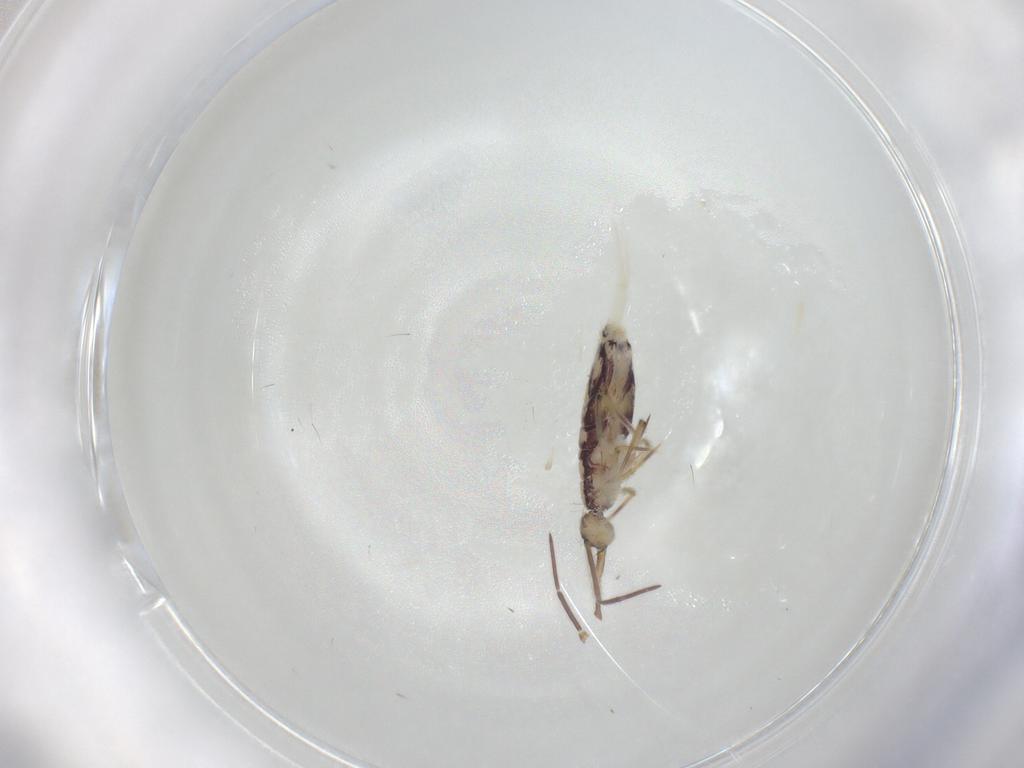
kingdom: Animalia
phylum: Arthropoda
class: Collembola
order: Entomobryomorpha
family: Entomobryidae
